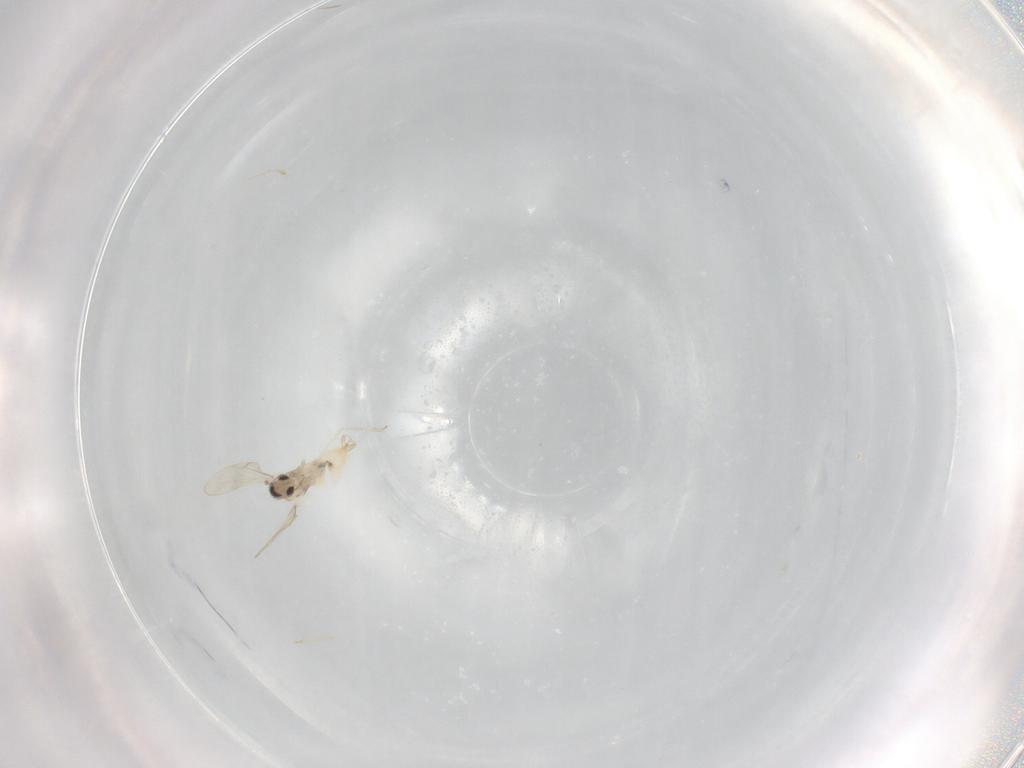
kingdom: Animalia
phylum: Arthropoda
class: Insecta
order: Diptera
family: Cecidomyiidae
